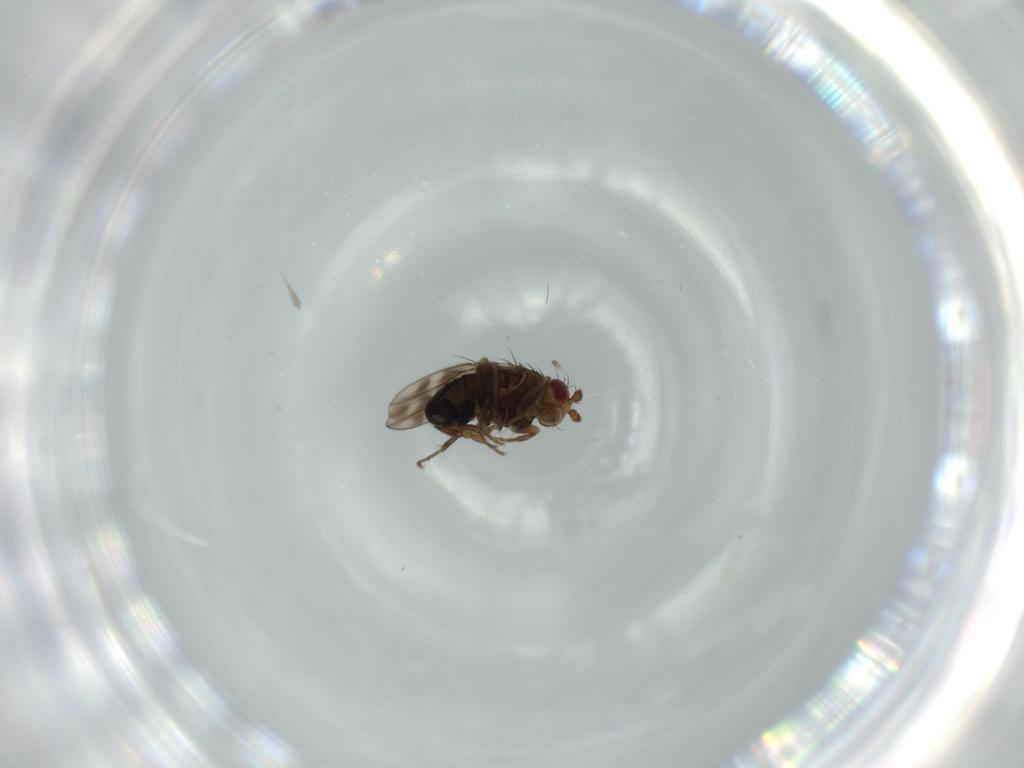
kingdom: Animalia
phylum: Arthropoda
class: Insecta
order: Diptera
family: Sphaeroceridae
